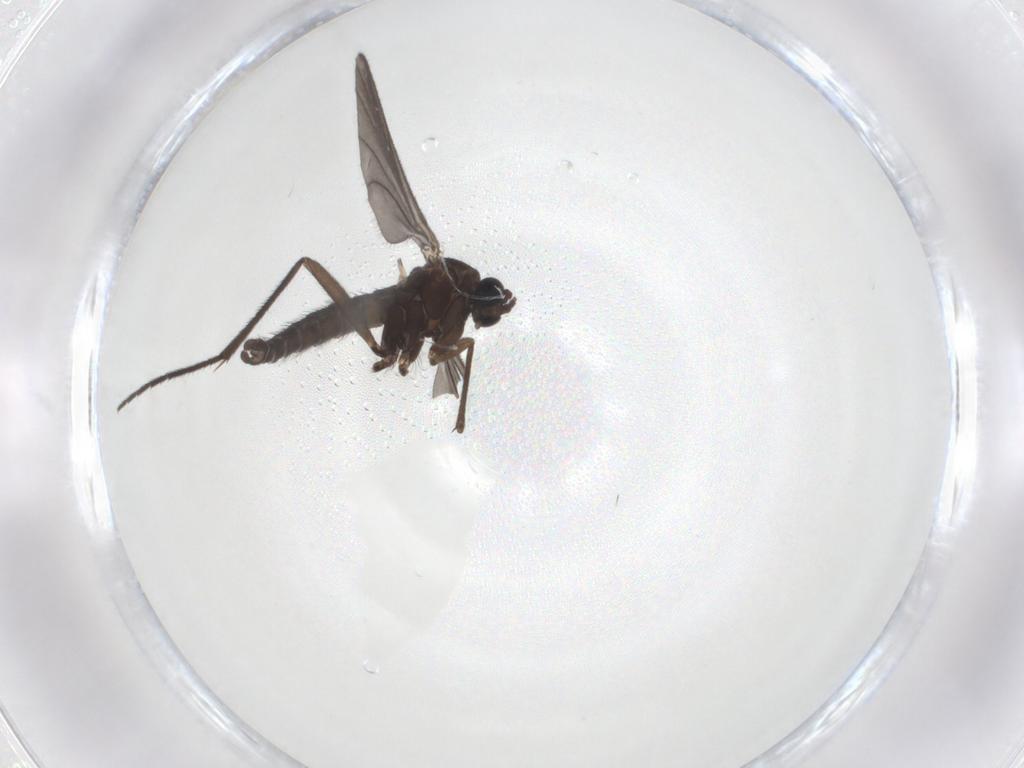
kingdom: Animalia
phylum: Arthropoda
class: Insecta
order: Diptera
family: Sciaridae
